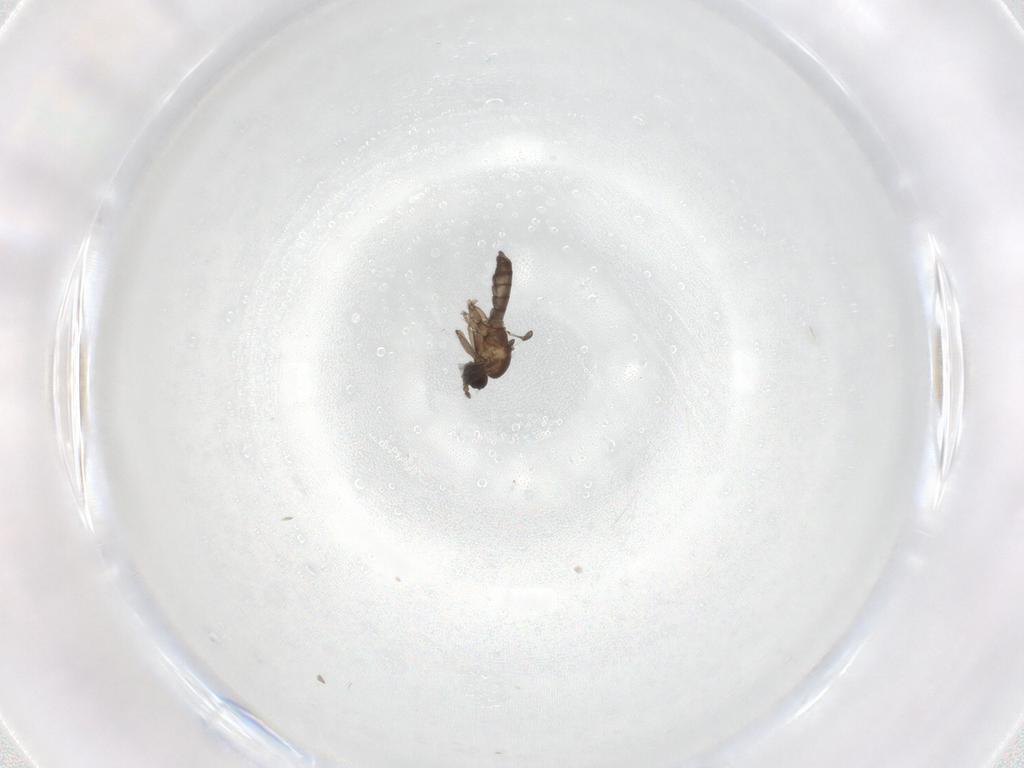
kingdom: Animalia
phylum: Arthropoda
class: Insecta
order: Diptera
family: Cecidomyiidae
